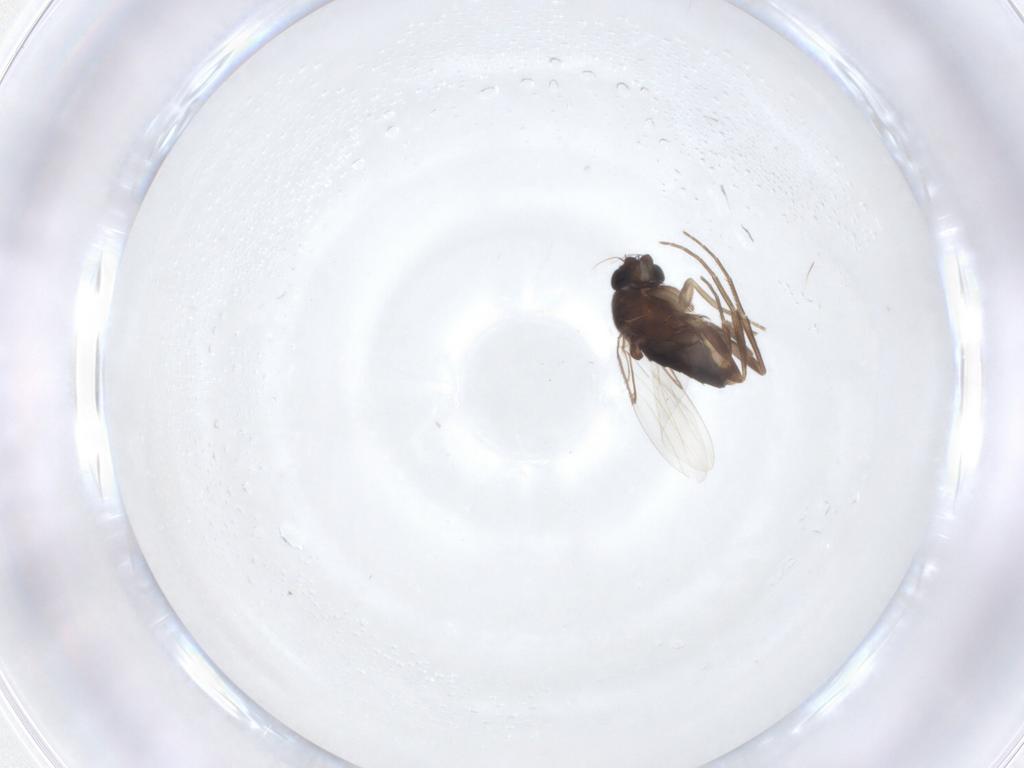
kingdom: Animalia
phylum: Arthropoda
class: Insecta
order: Diptera
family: Phoridae
